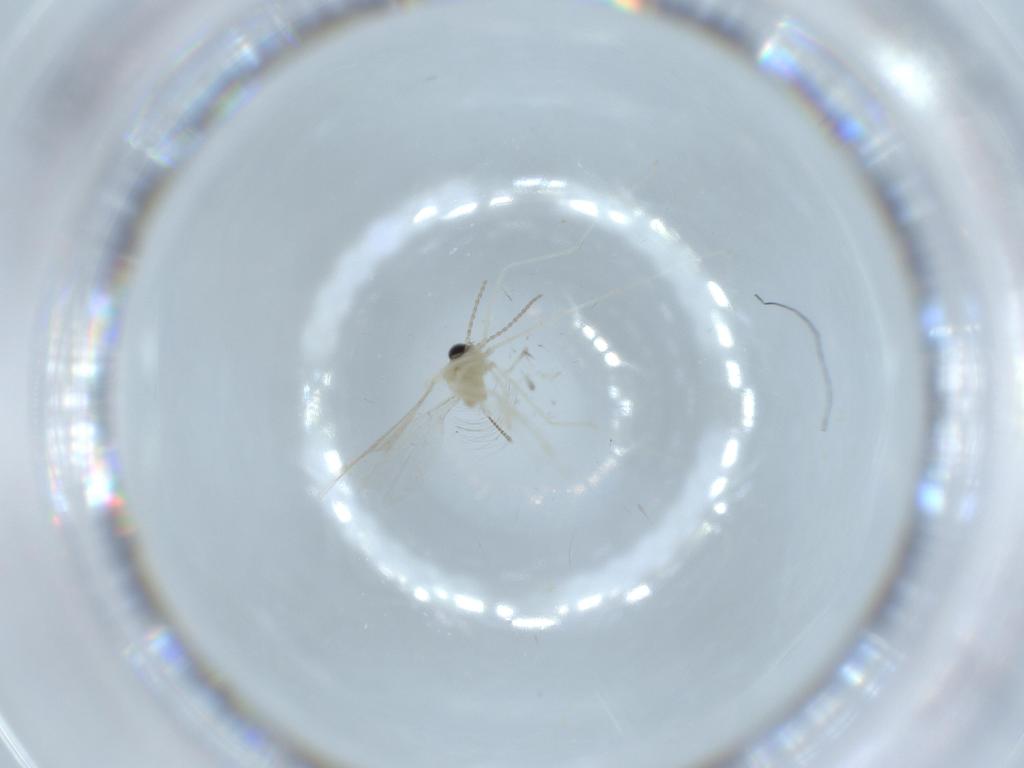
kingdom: Animalia
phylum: Arthropoda
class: Insecta
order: Diptera
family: Cecidomyiidae
